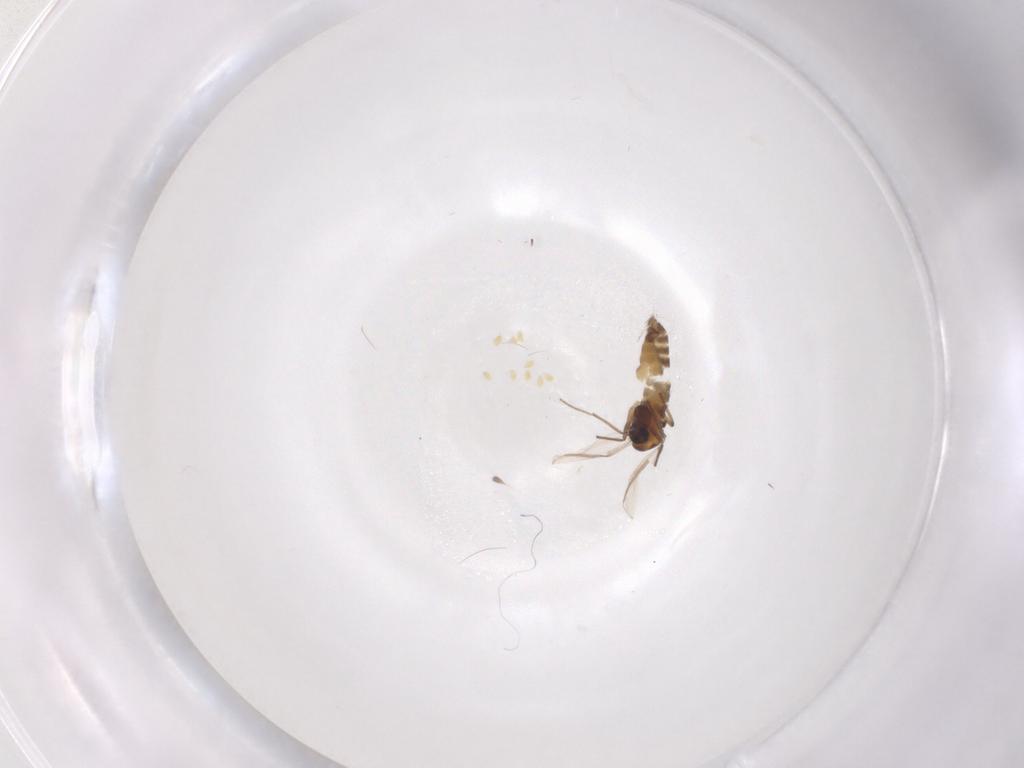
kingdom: Animalia
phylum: Arthropoda
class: Insecta
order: Diptera
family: Chironomidae
